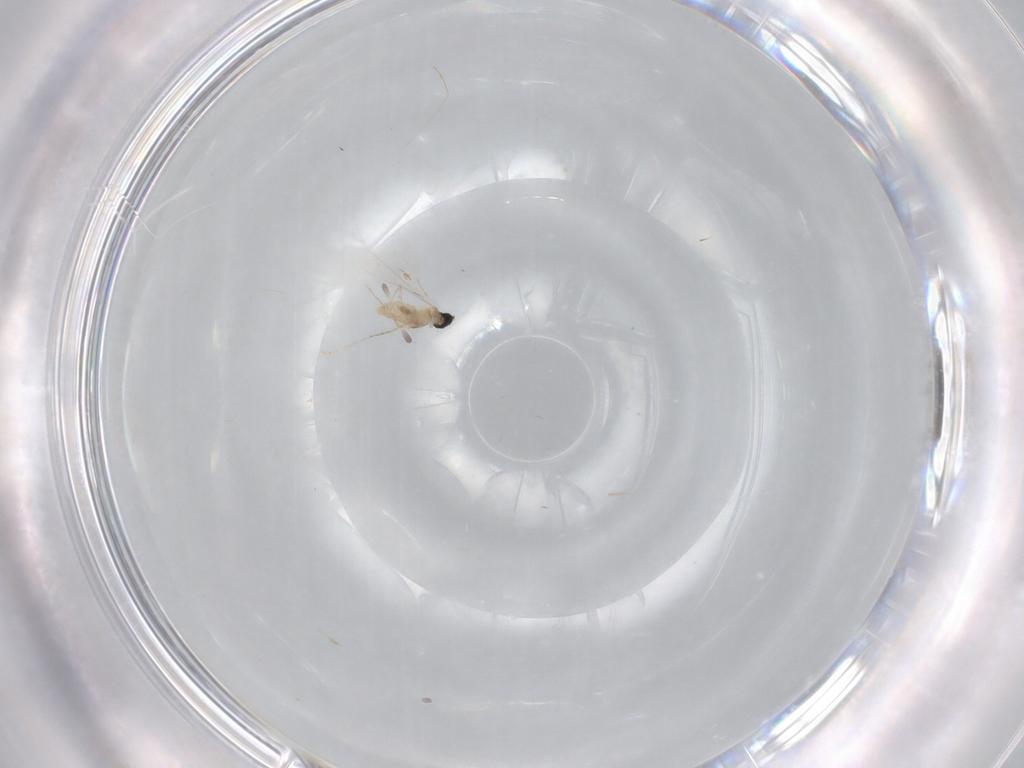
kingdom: Animalia
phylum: Arthropoda
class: Insecta
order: Diptera
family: Cecidomyiidae
